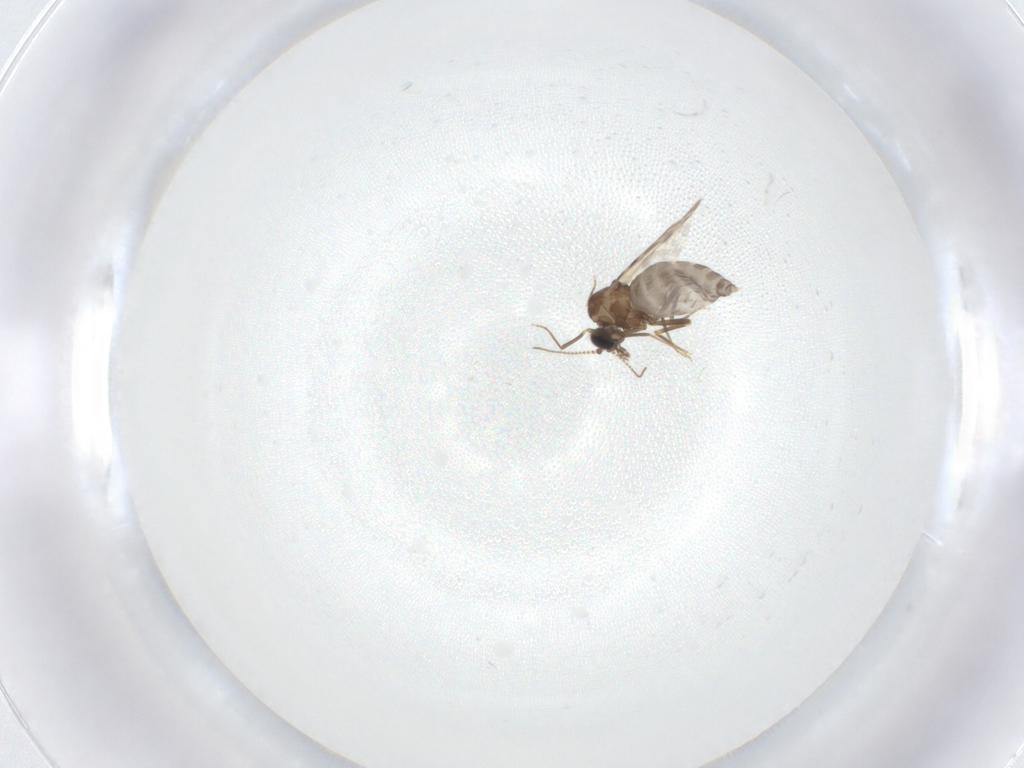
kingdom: Animalia
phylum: Arthropoda
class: Insecta
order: Diptera
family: Ceratopogonidae
